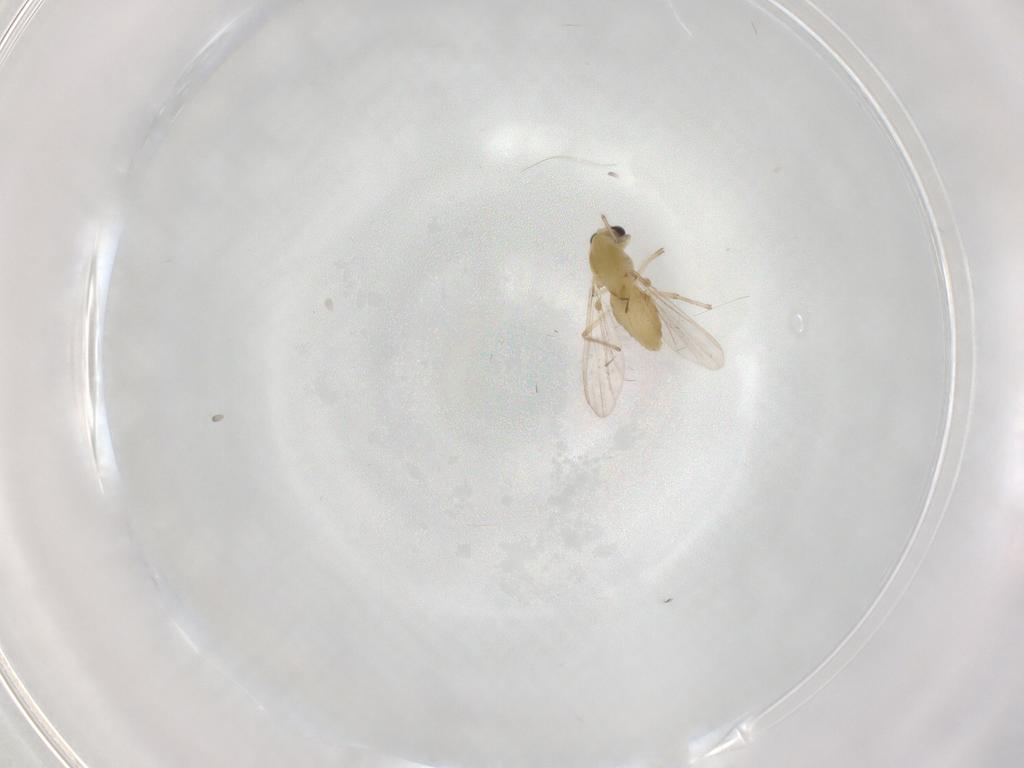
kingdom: Animalia
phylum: Arthropoda
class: Insecta
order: Diptera
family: Chironomidae
